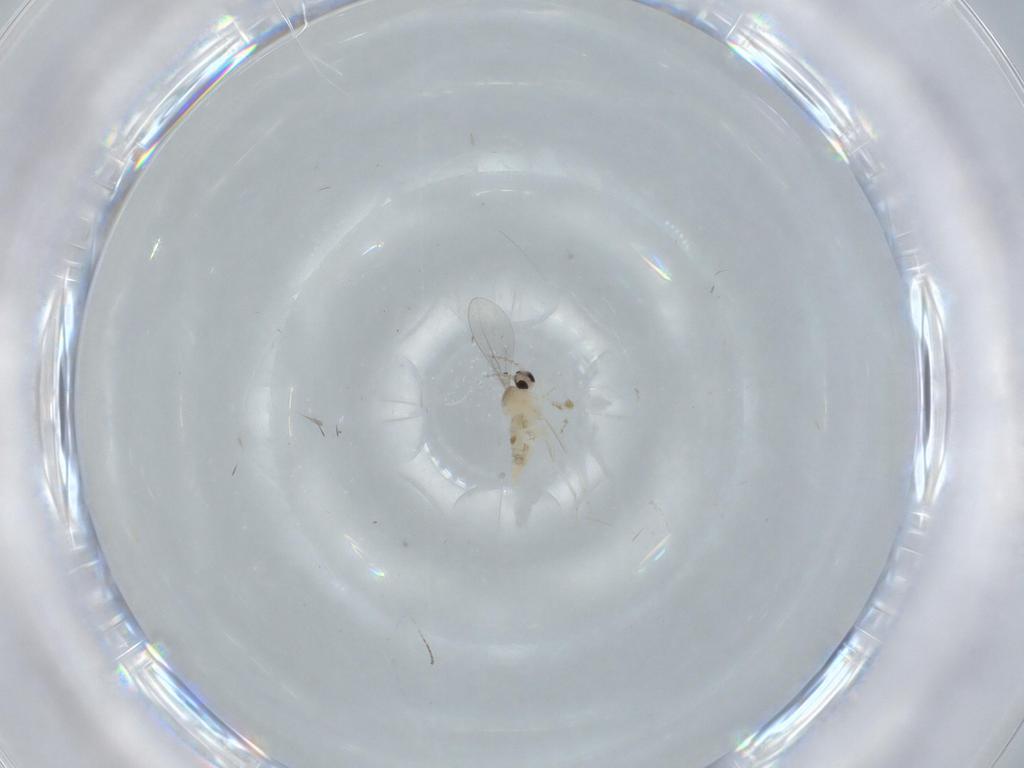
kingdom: Animalia
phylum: Arthropoda
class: Insecta
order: Diptera
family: Cecidomyiidae
